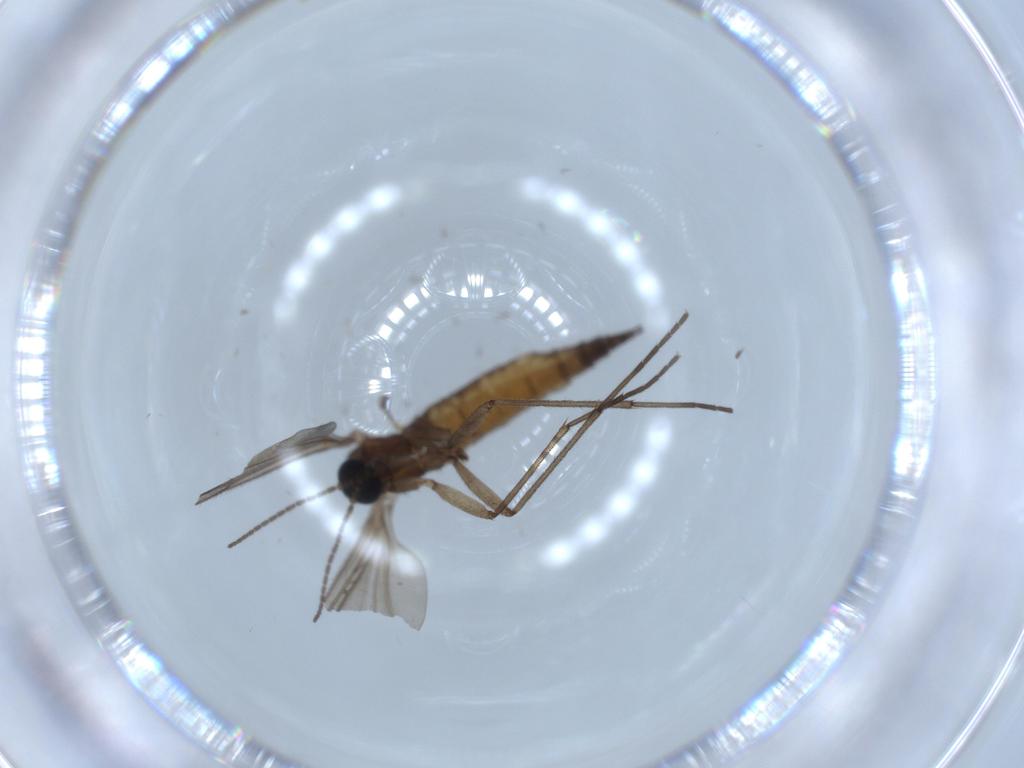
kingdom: Animalia
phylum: Arthropoda
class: Insecta
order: Diptera
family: Sciaridae
